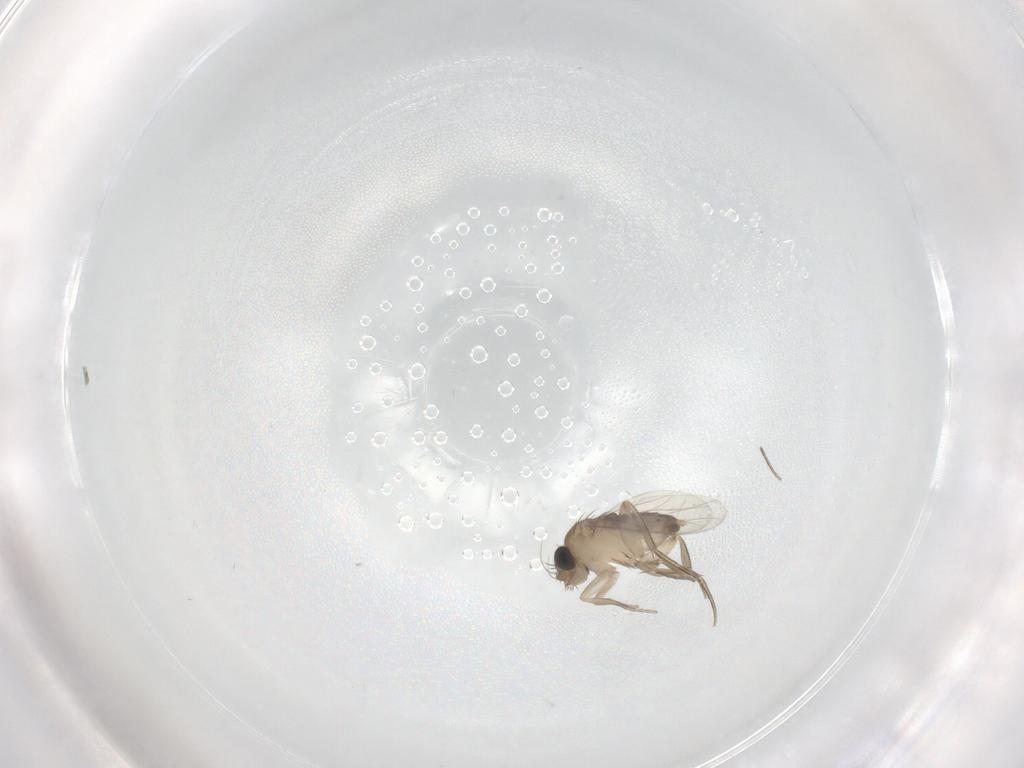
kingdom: Animalia
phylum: Arthropoda
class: Insecta
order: Diptera
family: Phoridae
